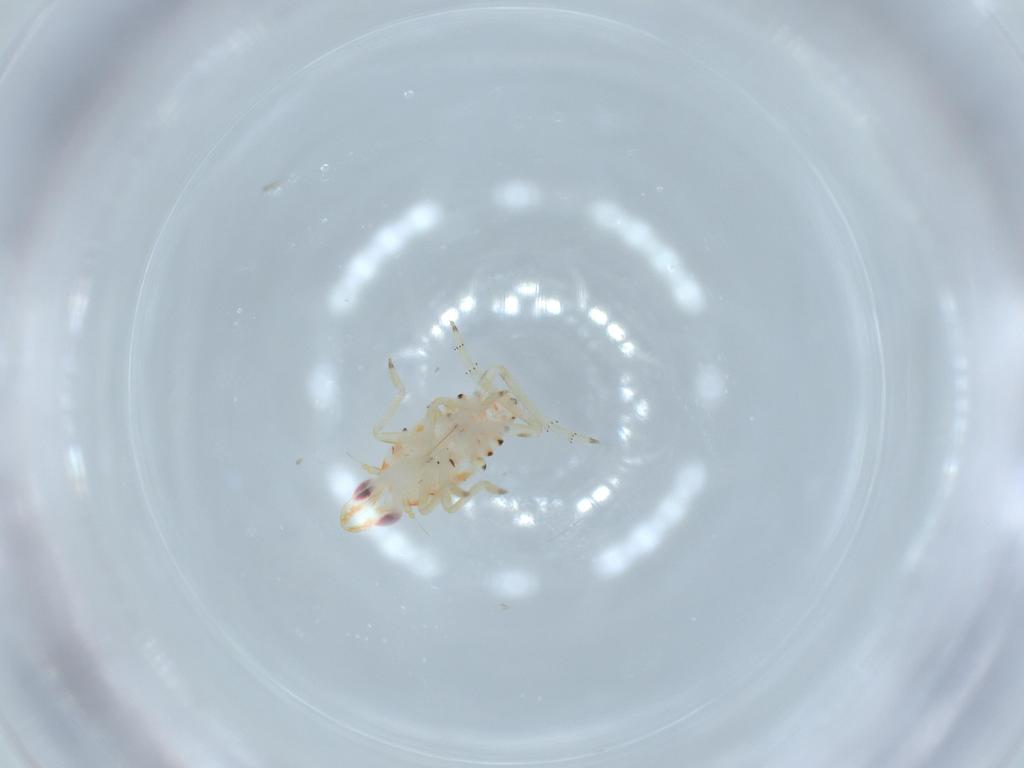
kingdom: Animalia
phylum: Arthropoda
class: Insecta
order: Hemiptera
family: Tropiduchidae
